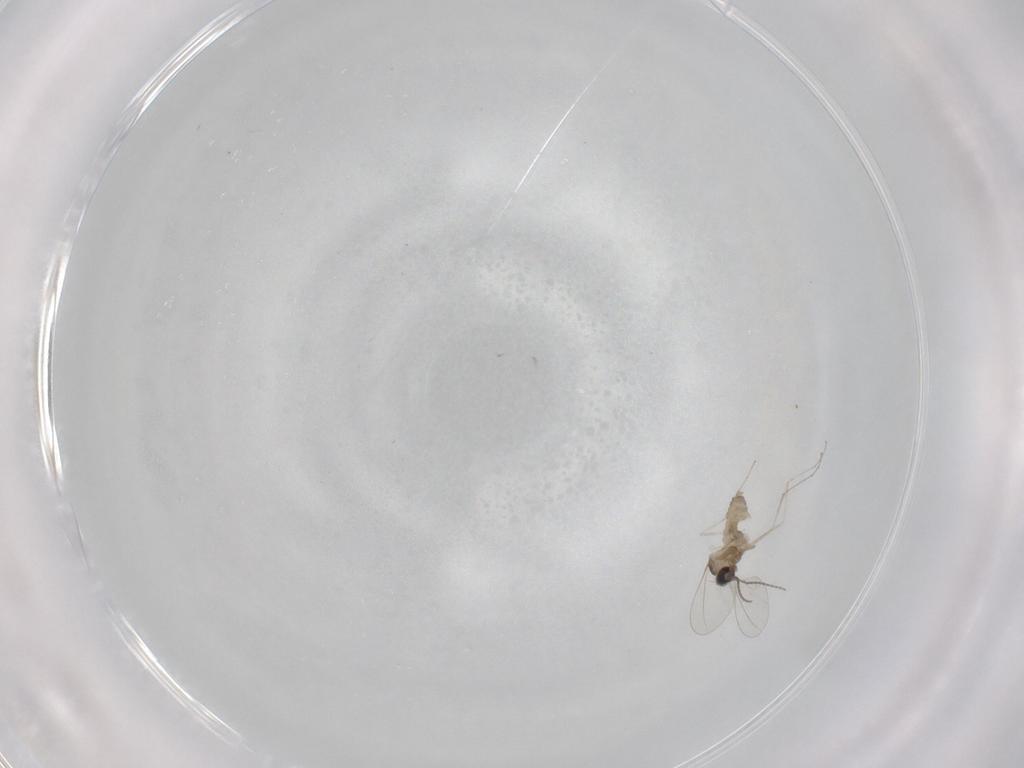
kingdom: Animalia
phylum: Arthropoda
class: Insecta
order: Diptera
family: Cecidomyiidae
